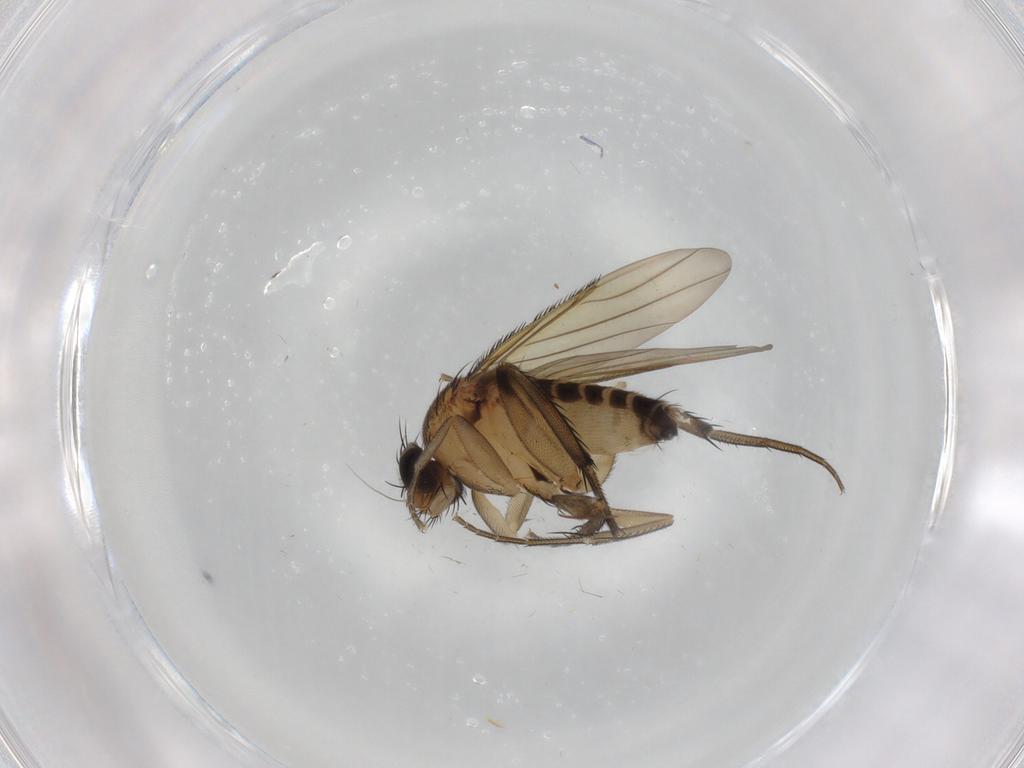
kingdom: Animalia
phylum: Arthropoda
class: Insecta
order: Diptera
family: Phoridae
